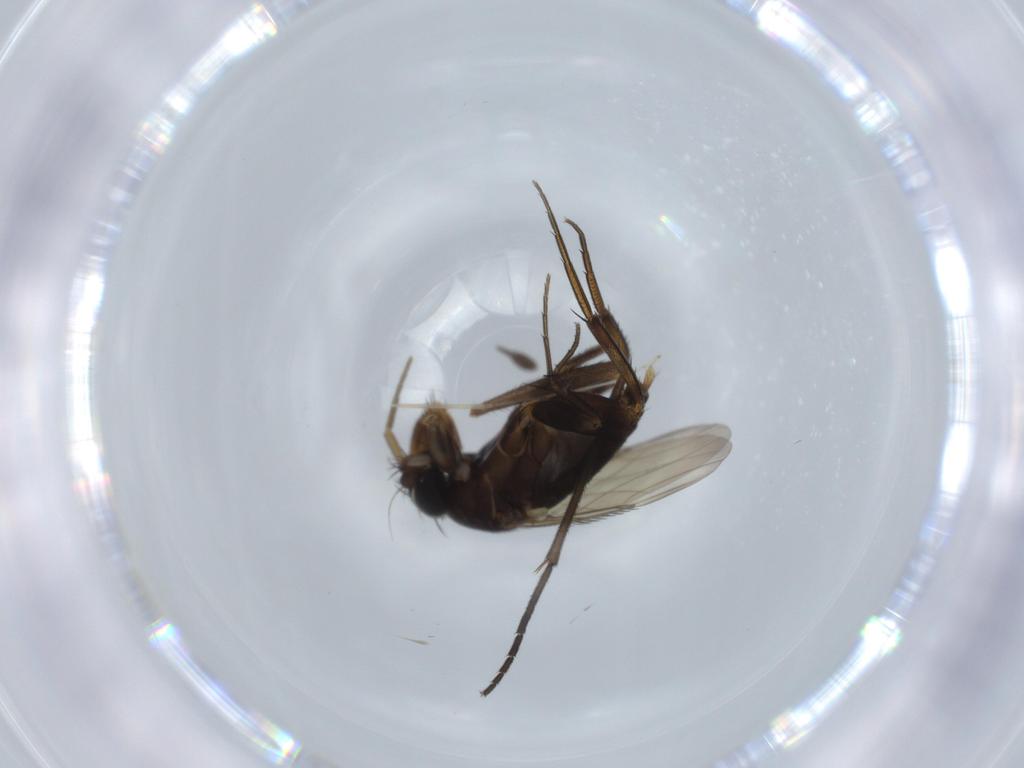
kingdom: Animalia
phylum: Arthropoda
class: Insecta
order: Diptera
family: Phoridae
